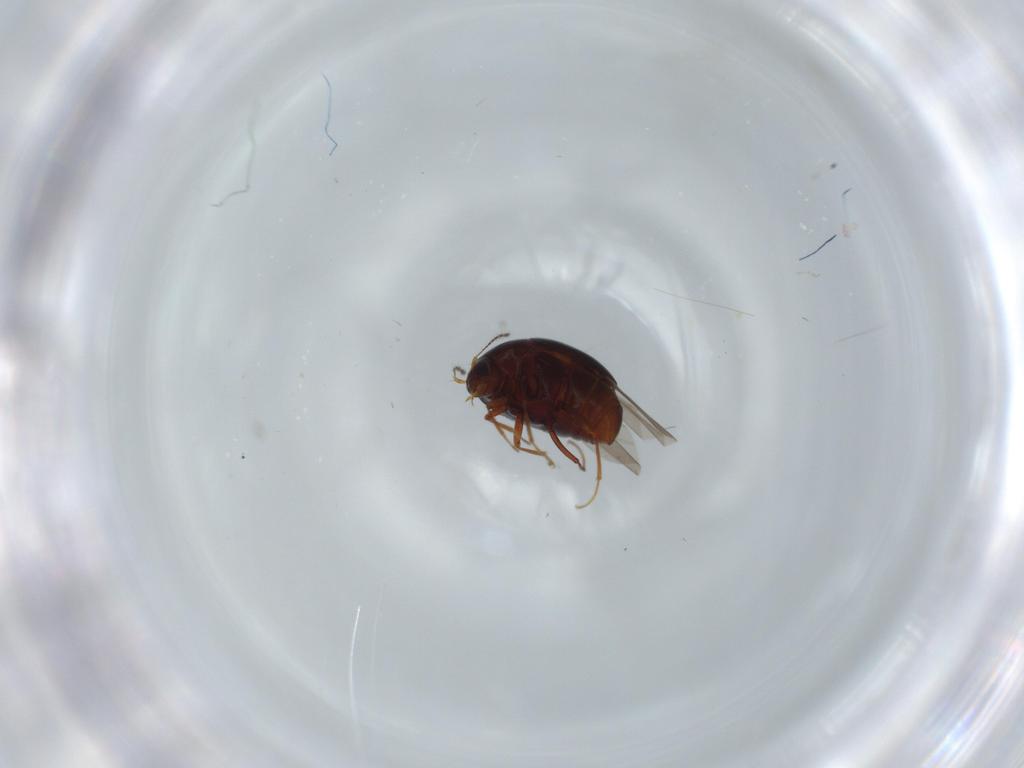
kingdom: Animalia
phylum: Arthropoda
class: Insecta
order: Coleoptera
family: Staphylinidae
